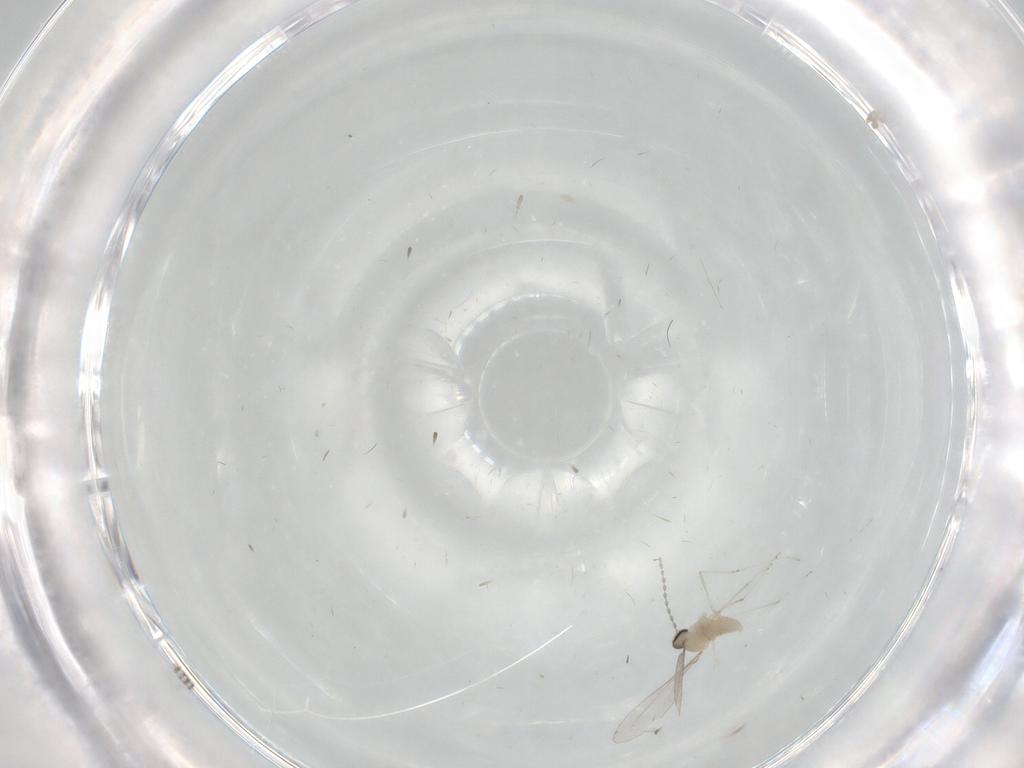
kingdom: Animalia
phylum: Arthropoda
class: Insecta
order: Diptera
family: Cecidomyiidae
